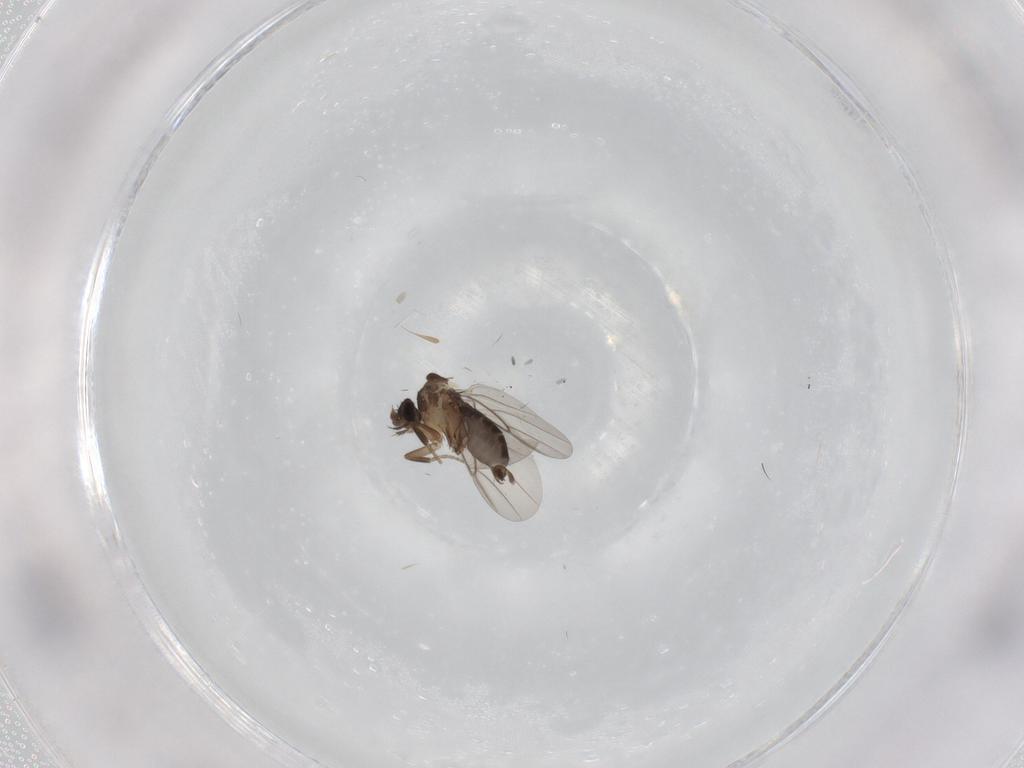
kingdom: Animalia
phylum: Arthropoda
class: Insecta
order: Diptera
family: Phoridae
